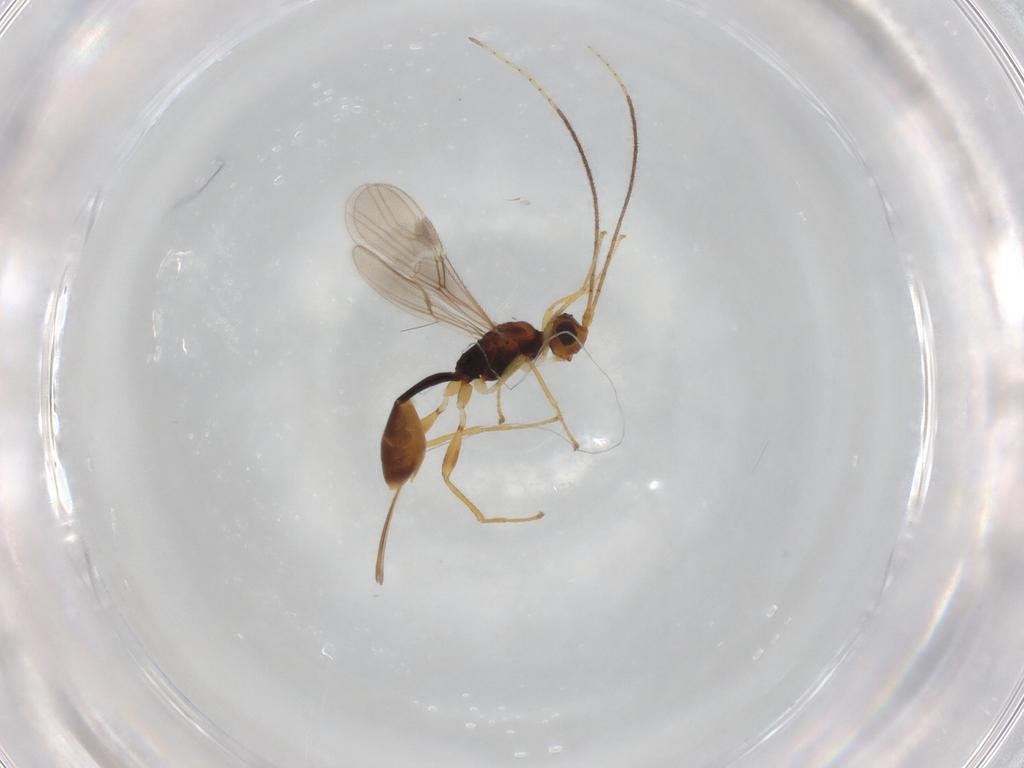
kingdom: Animalia
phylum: Arthropoda
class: Insecta
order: Hymenoptera
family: Braconidae
